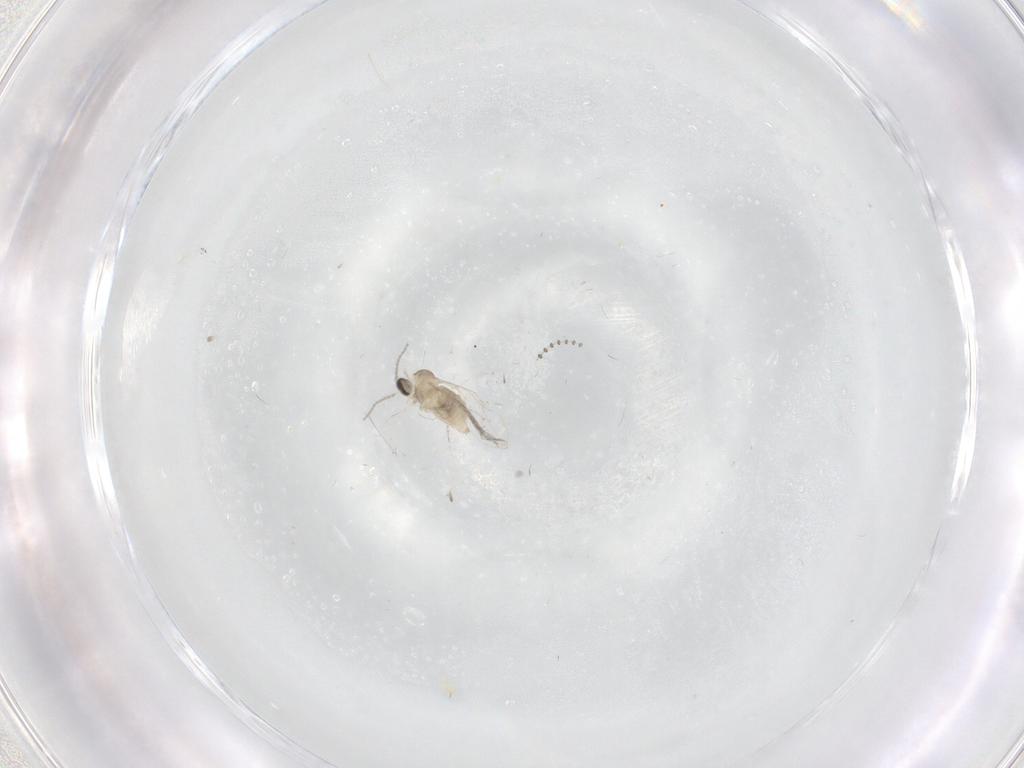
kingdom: Animalia
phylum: Arthropoda
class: Insecta
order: Diptera
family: Cecidomyiidae
